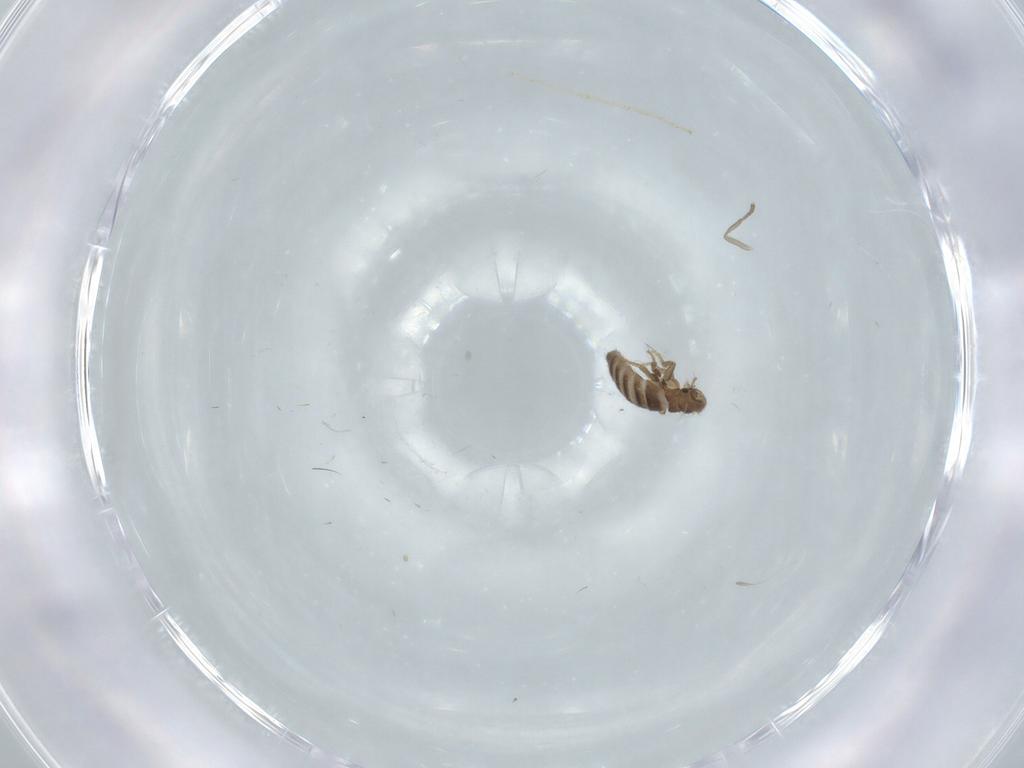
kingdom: Animalia
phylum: Arthropoda
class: Insecta
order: Diptera
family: Psychodidae
